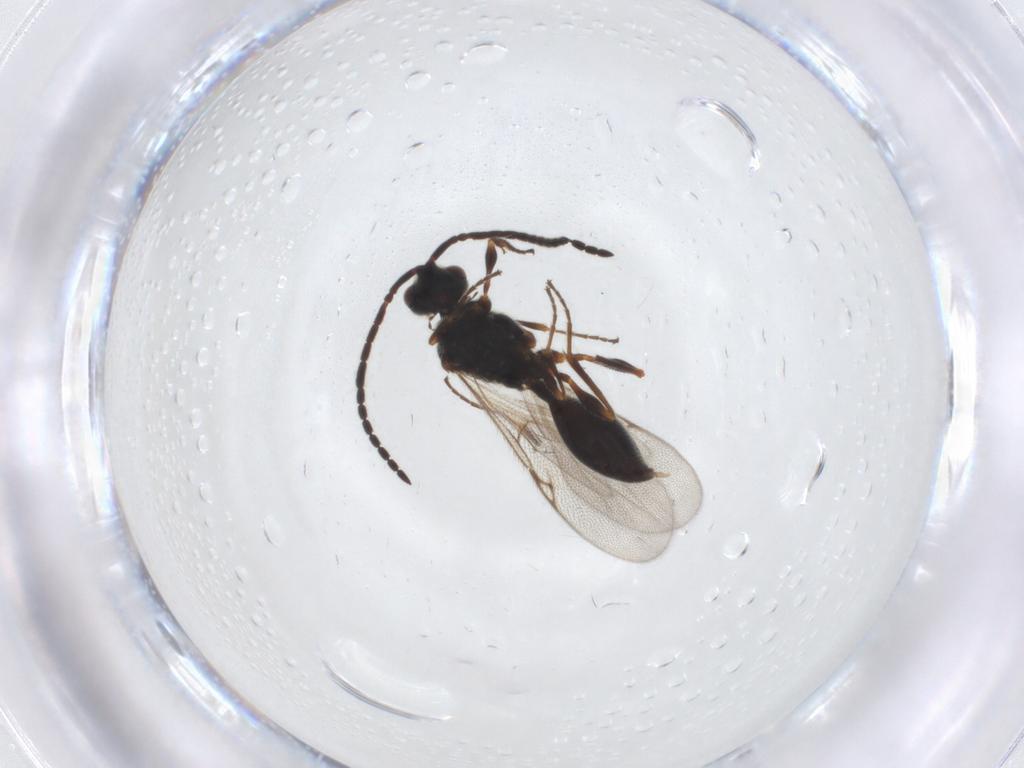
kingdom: Animalia
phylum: Arthropoda
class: Insecta
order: Hymenoptera
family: Diapriidae
